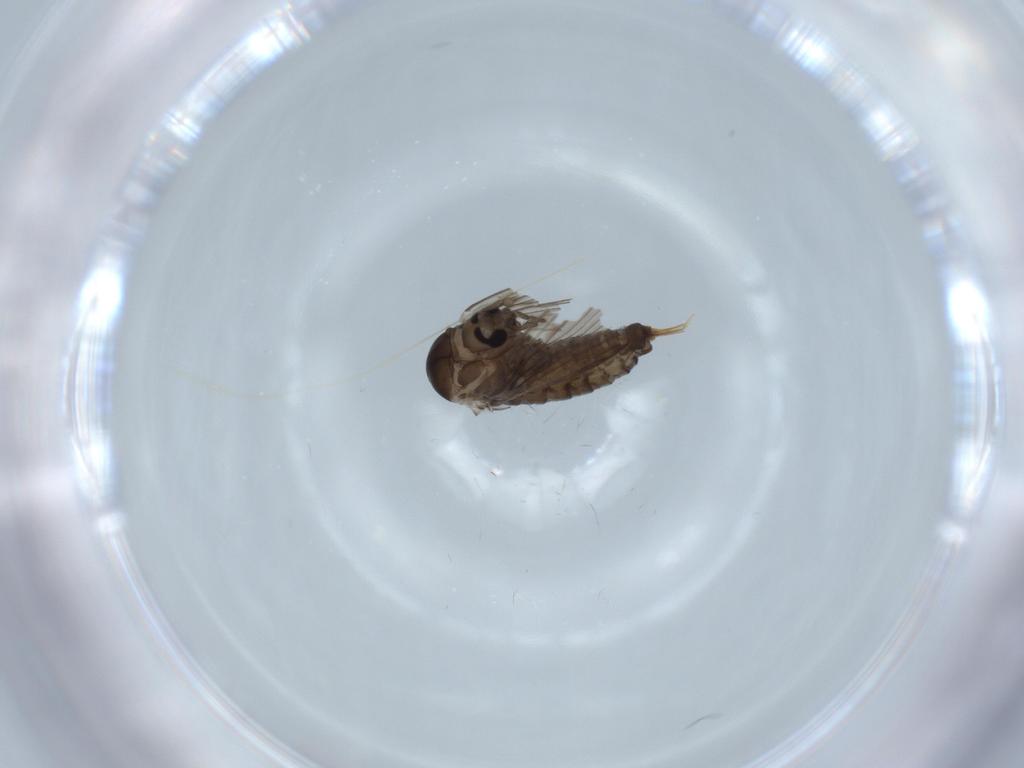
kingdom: Animalia
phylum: Arthropoda
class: Insecta
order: Diptera
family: Psychodidae
